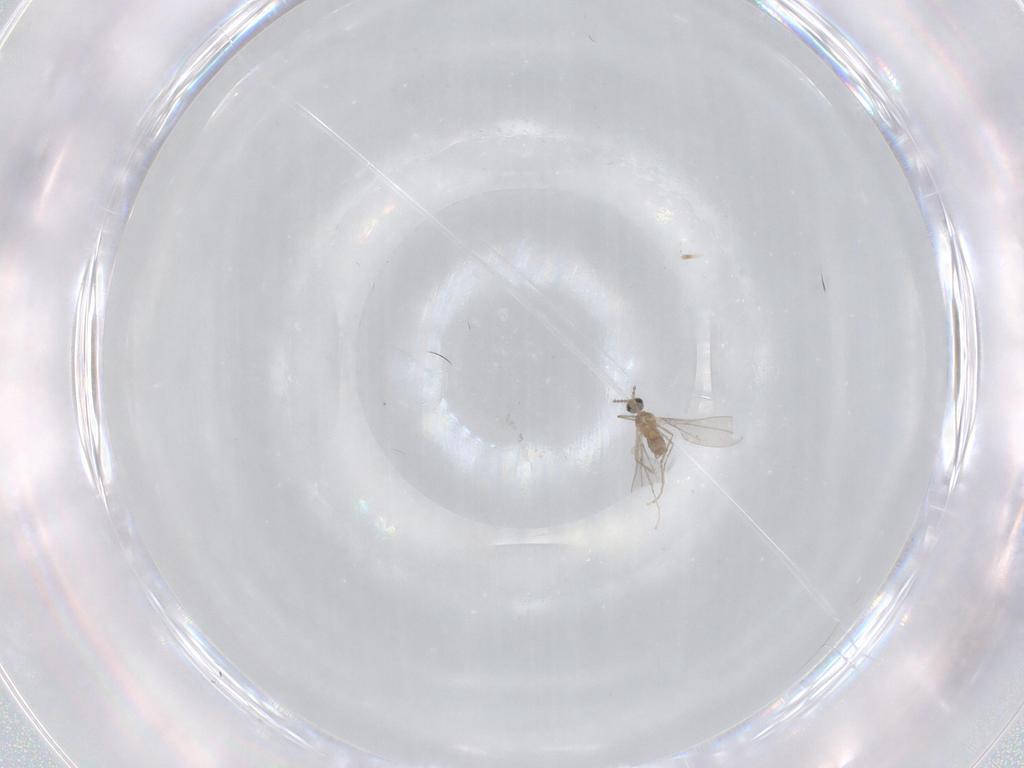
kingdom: Animalia
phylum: Arthropoda
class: Insecta
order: Diptera
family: Cecidomyiidae
